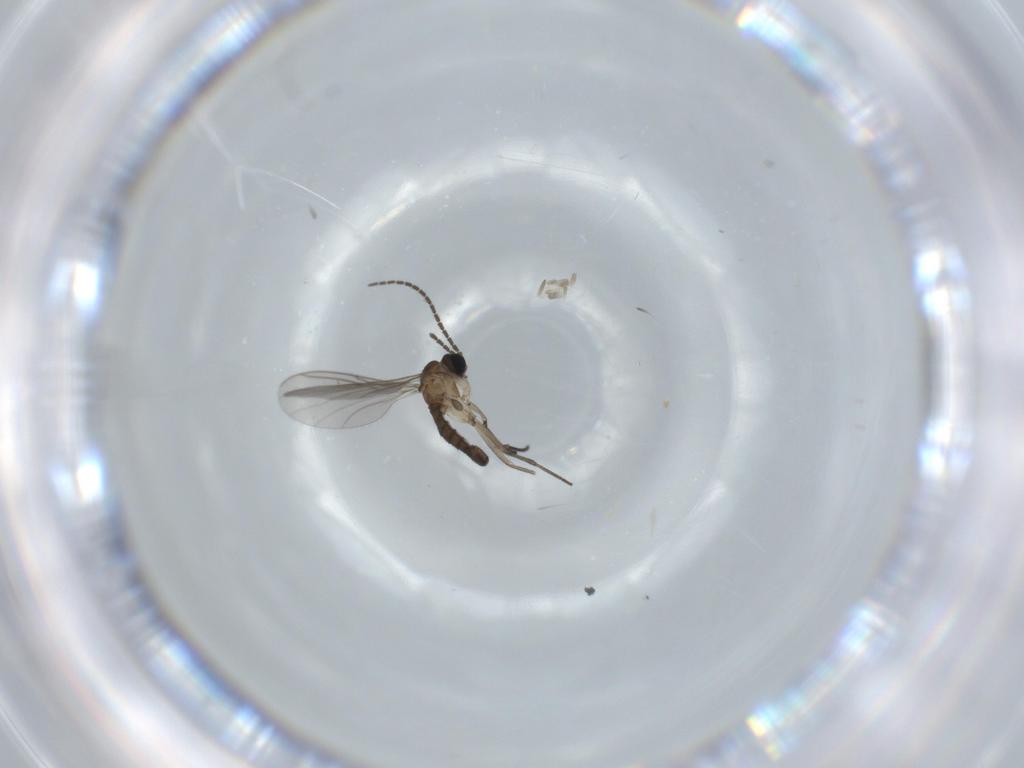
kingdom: Animalia
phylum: Arthropoda
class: Insecta
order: Diptera
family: Sciaridae
